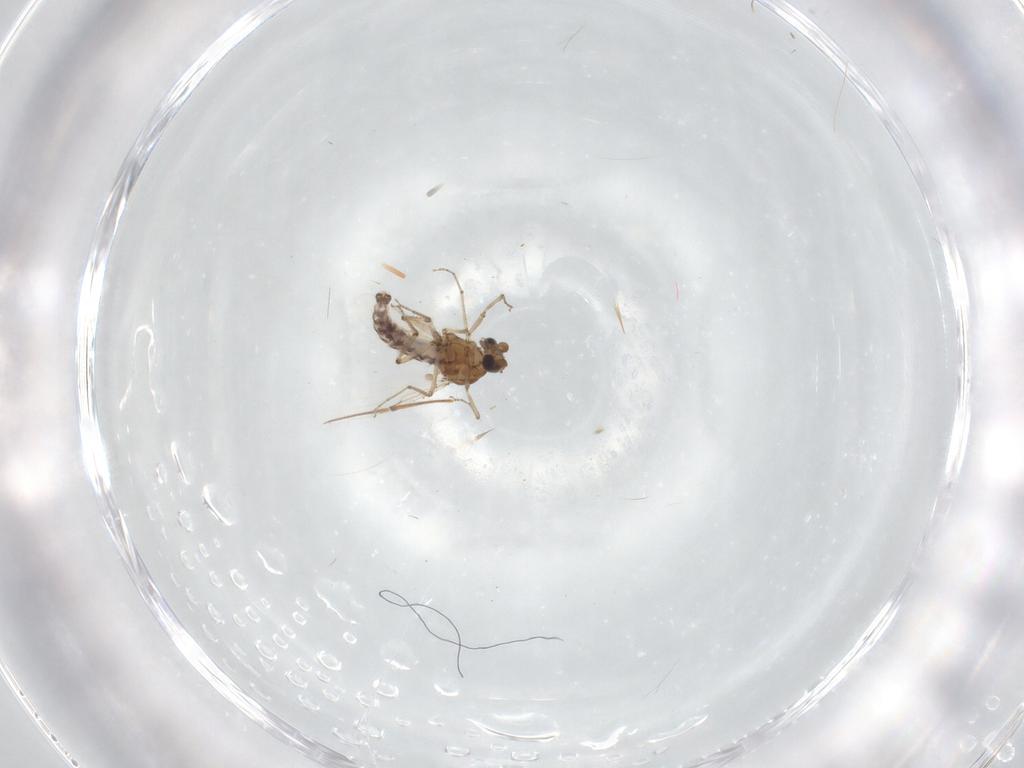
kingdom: Animalia
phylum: Arthropoda
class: Insecta
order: Diptera
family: Ceratopogonidae
